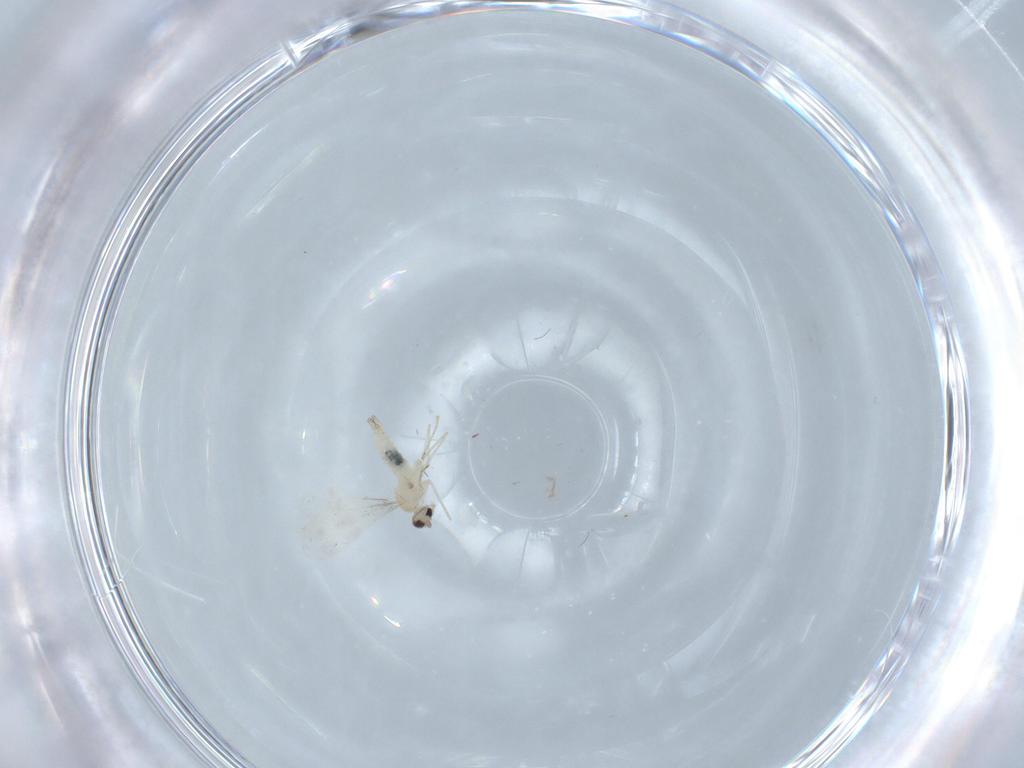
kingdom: Animalia
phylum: Arthropoda
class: Insecta
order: Diptera
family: Cecidomyiidae
